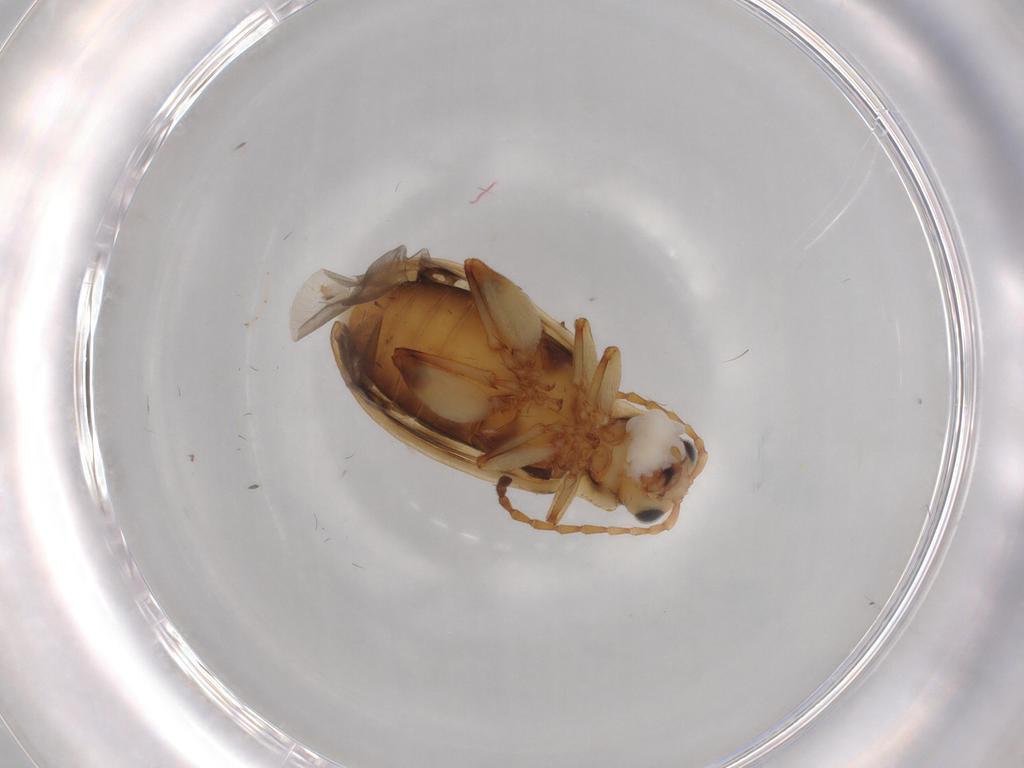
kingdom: Animalia
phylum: Arthropoda
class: Insecta
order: Coleoptera
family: Chrysomelidae
